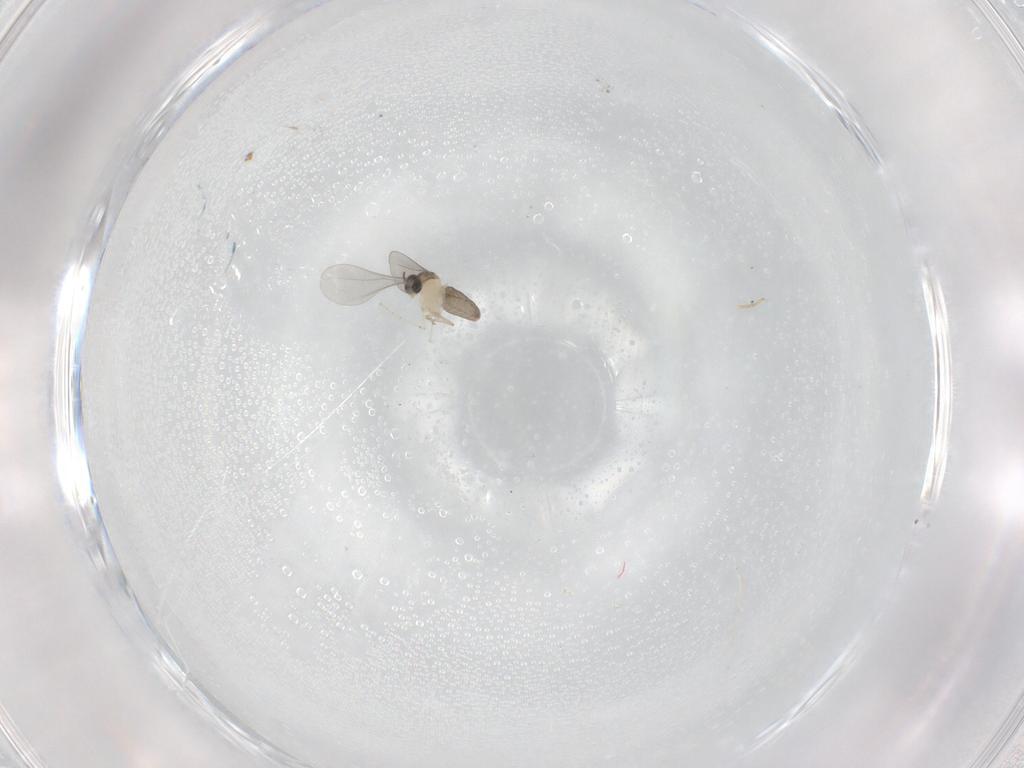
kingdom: Animalia
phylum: Arthropoda
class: Insecta
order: Diptera
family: Cecidomyiidae
